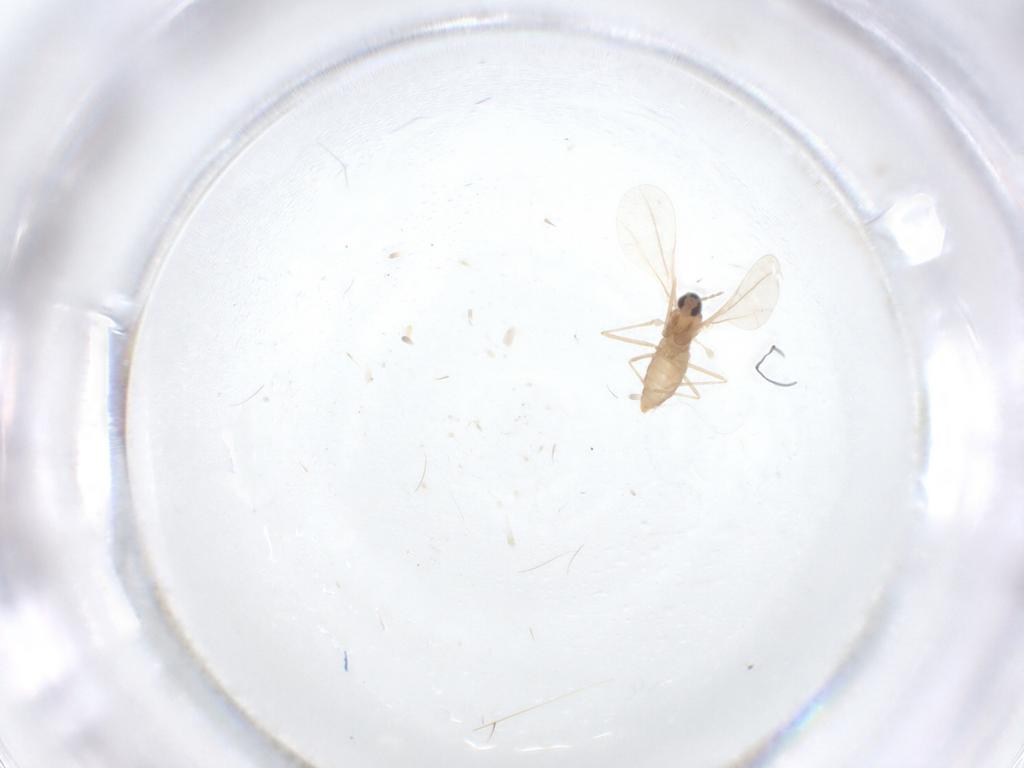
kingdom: Animalia
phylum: Arthropoda
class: Insecta
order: Diptera
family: Cecidomyiidae
